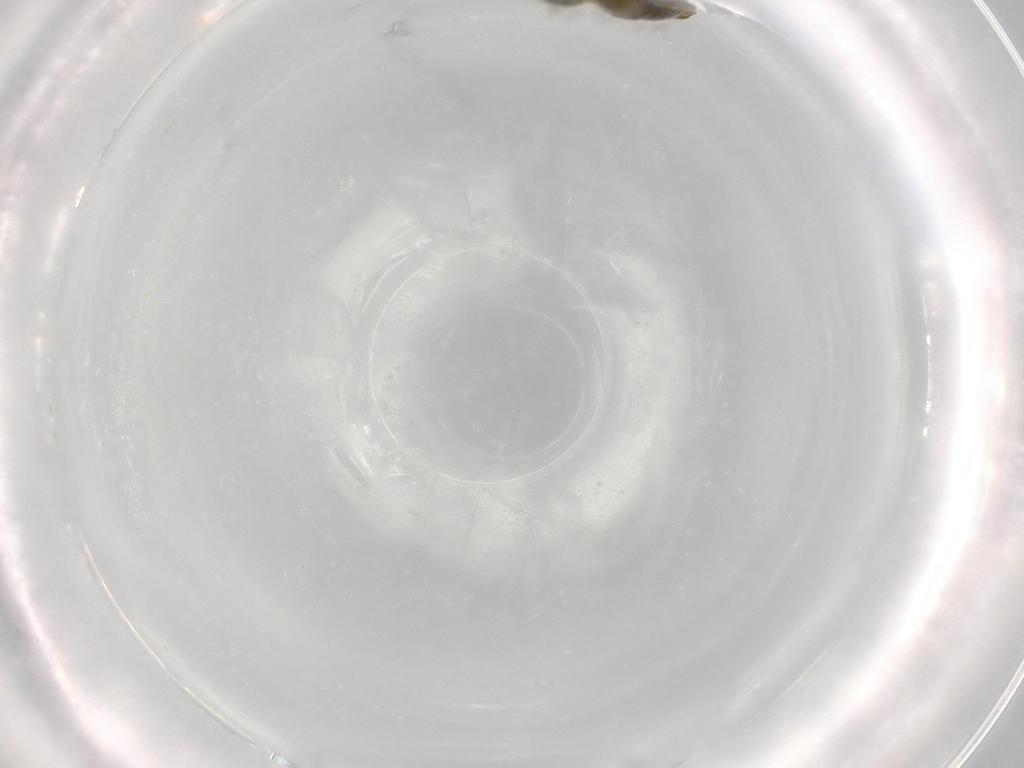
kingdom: Animalia
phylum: Arthropoda
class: Collembola
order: Entomobryomorpha
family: Tomoceridae
